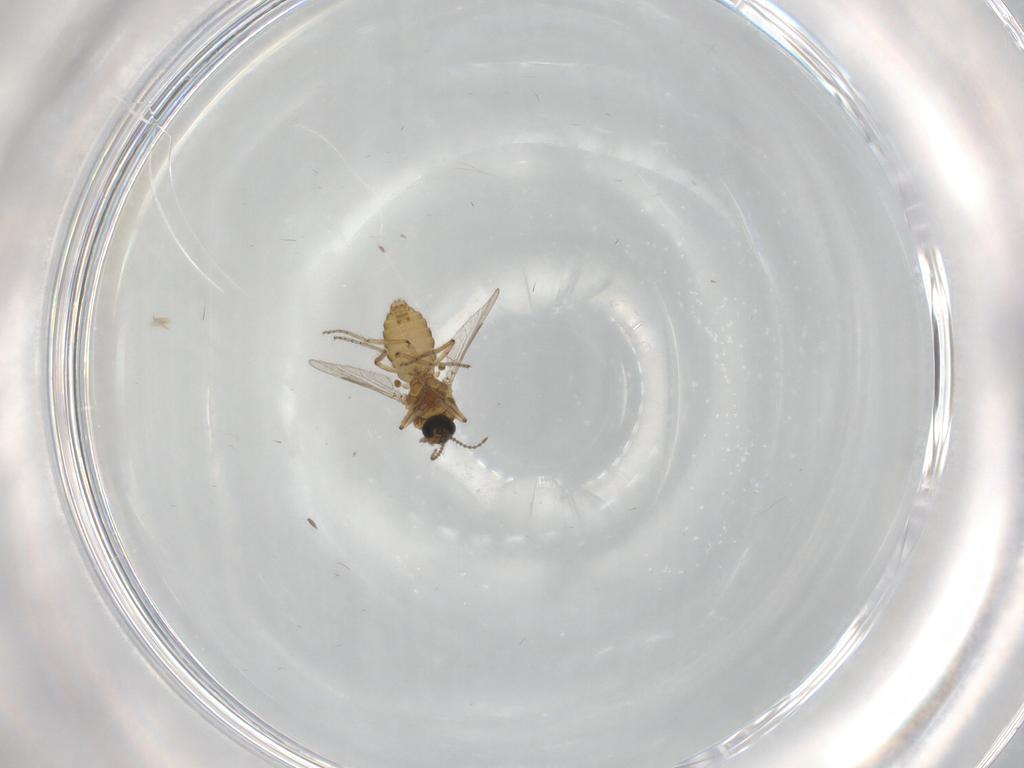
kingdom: Animalia
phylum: Arthropoda
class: Insecta
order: Diptera
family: Ceratopogonidae
